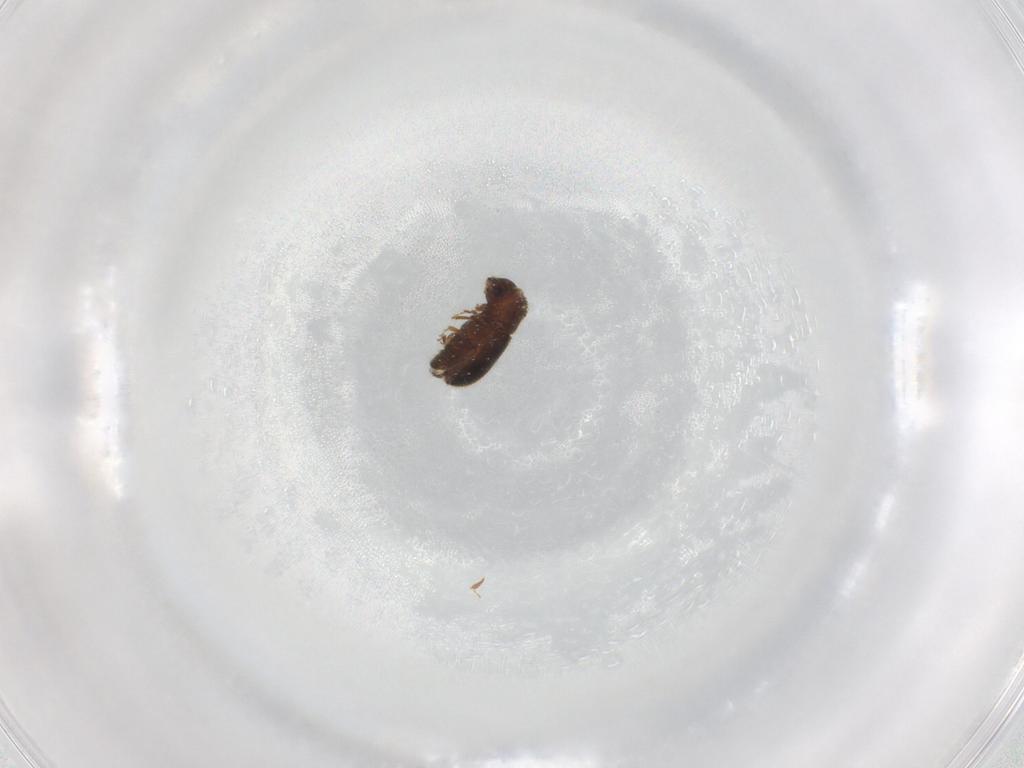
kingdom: Animalia
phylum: Arthropoda
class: Insecta
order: Coleoptera
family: Curculionidae
